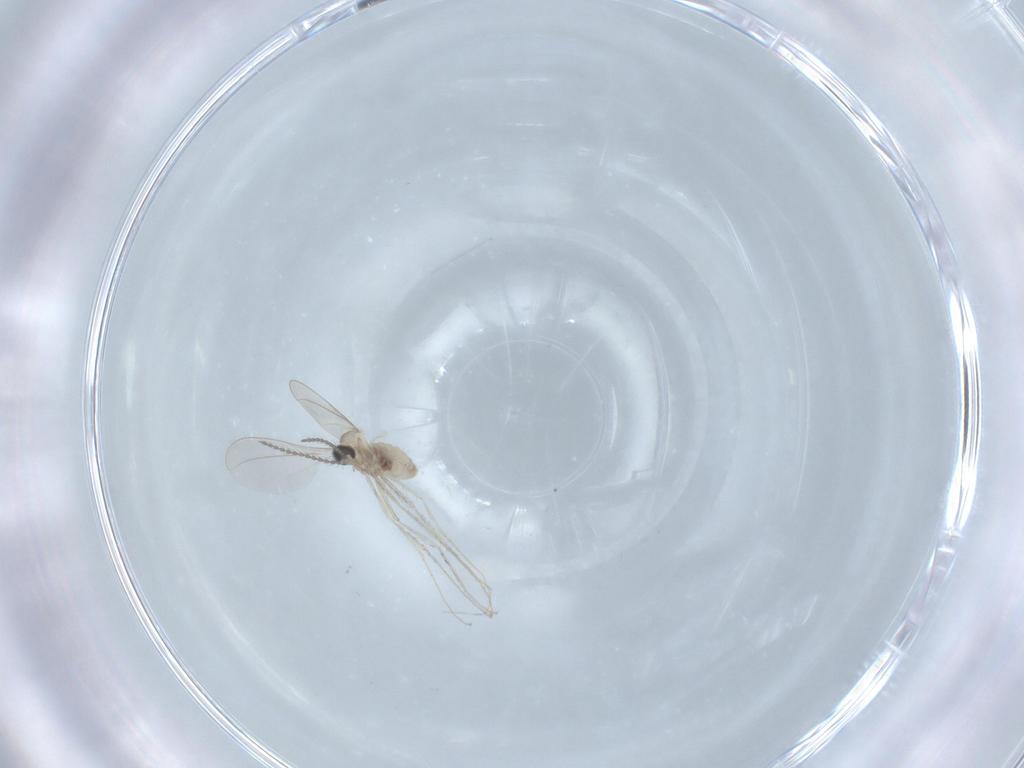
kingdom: Animalia
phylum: Arthropoda
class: Insecta
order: Diptera
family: Cecidomyiidae
